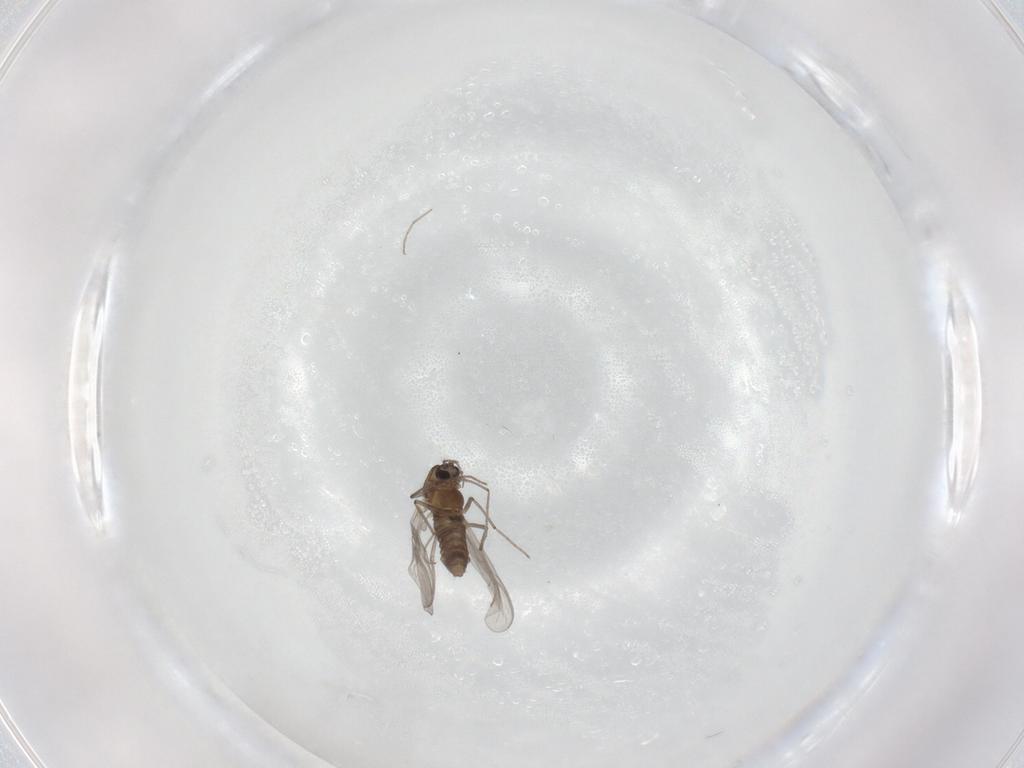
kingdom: Animalia
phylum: Arthropoda
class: Insecta
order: Diptera
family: Chironomidae
